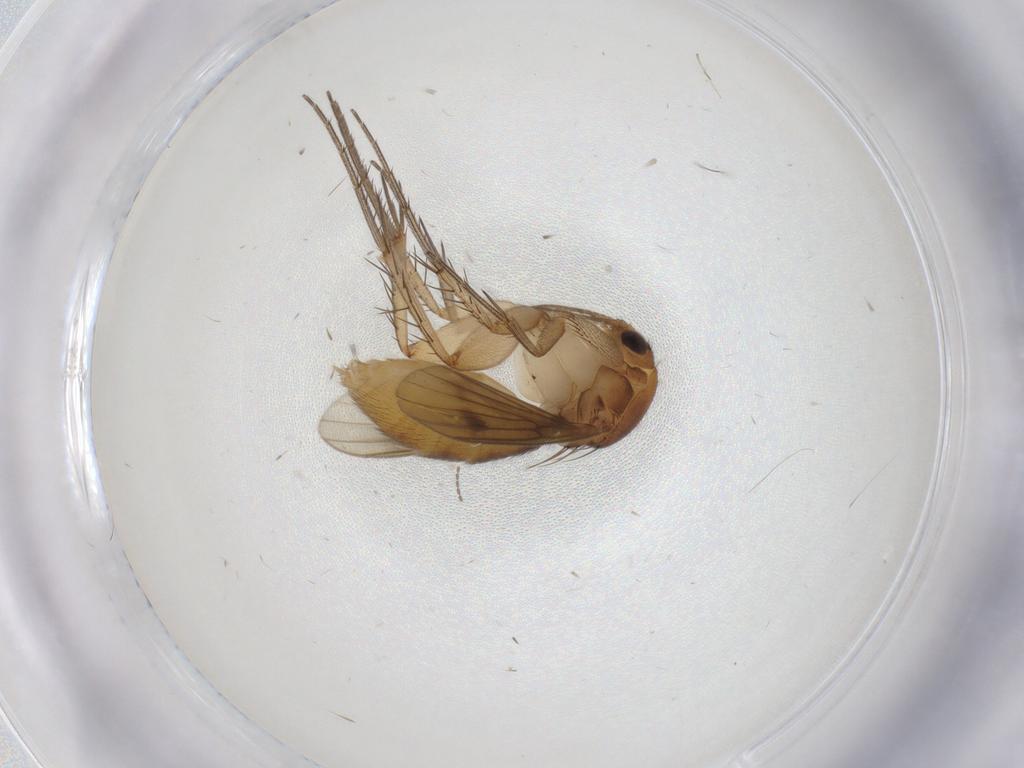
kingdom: Animalia
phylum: Arthropoda
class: Insecta
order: Diptera
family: Mycetophilidae
